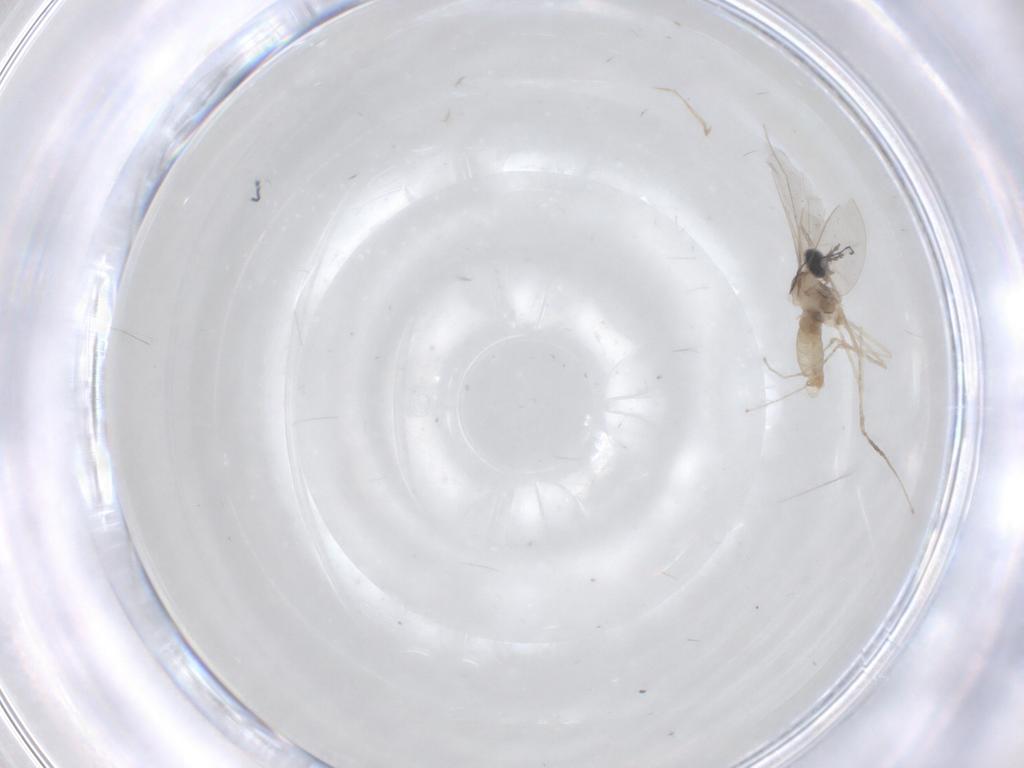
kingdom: Animalia
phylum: Arthropoda
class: Insecta
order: Diptera
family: Cecidomyiidae
